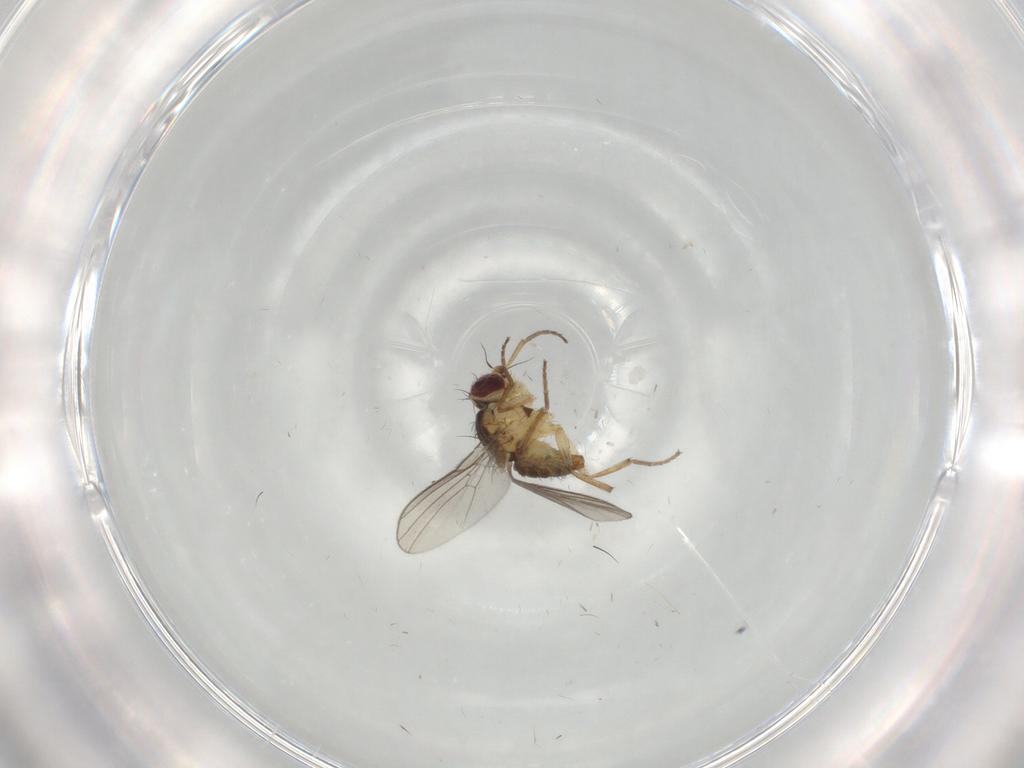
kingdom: Animalia
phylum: Arthropoda
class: Insecta
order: Diptera
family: Agromyzidae
